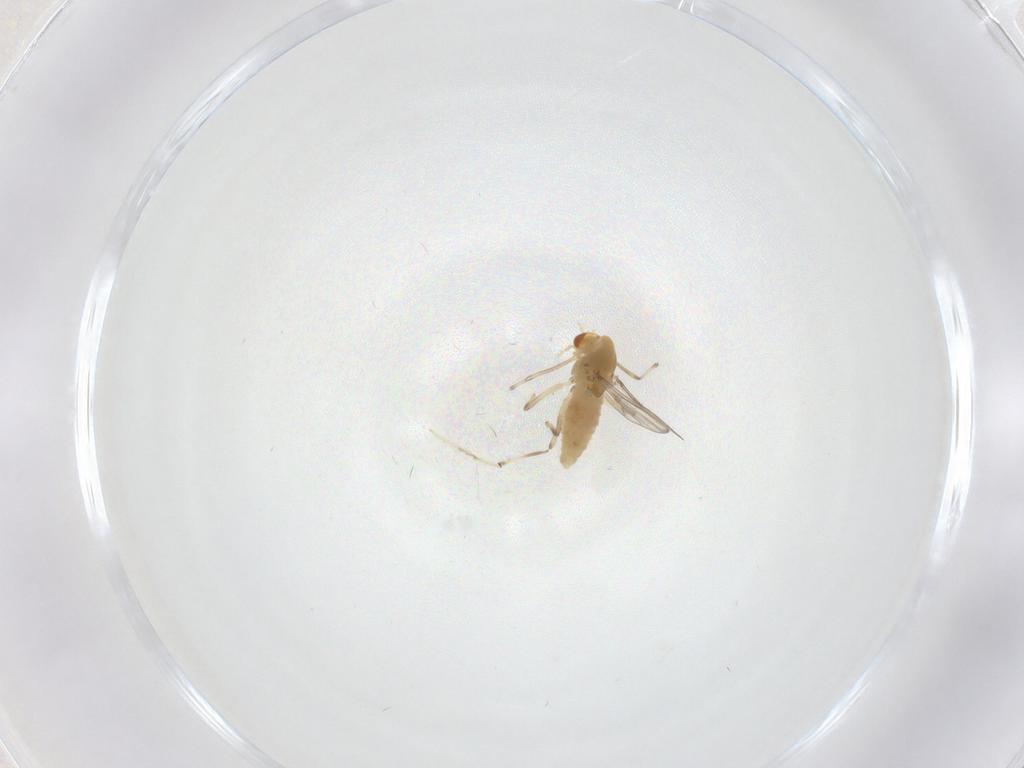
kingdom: Animalia
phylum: Arthropoda
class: Insecta
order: Diptera
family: Chironomidae
